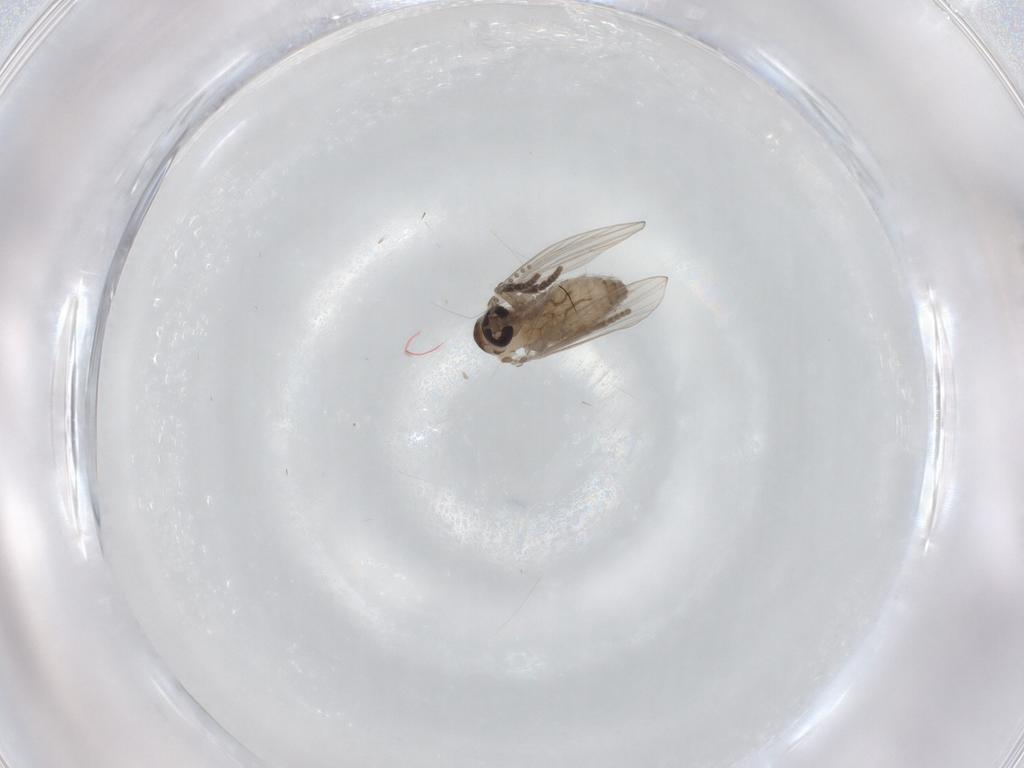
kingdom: Animalia
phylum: Arthropoda
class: Insecta
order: Diptera
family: Psychodidae
